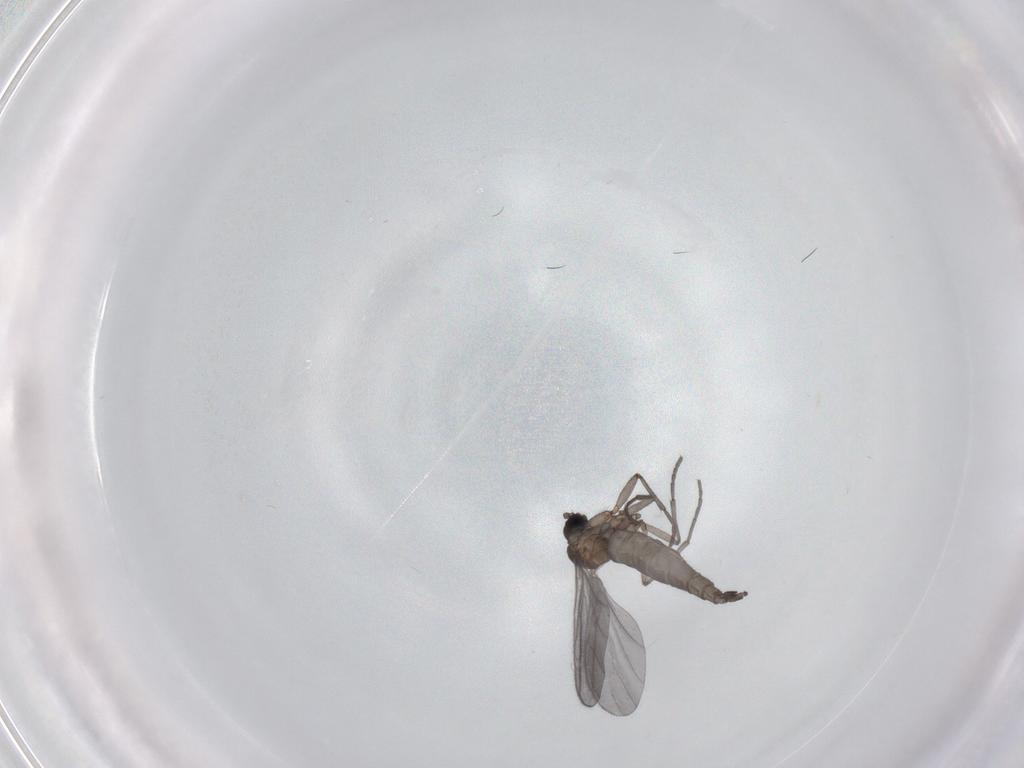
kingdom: Animalia
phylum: Arthropoda
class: Insecta
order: Diptera
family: Sciaridae
